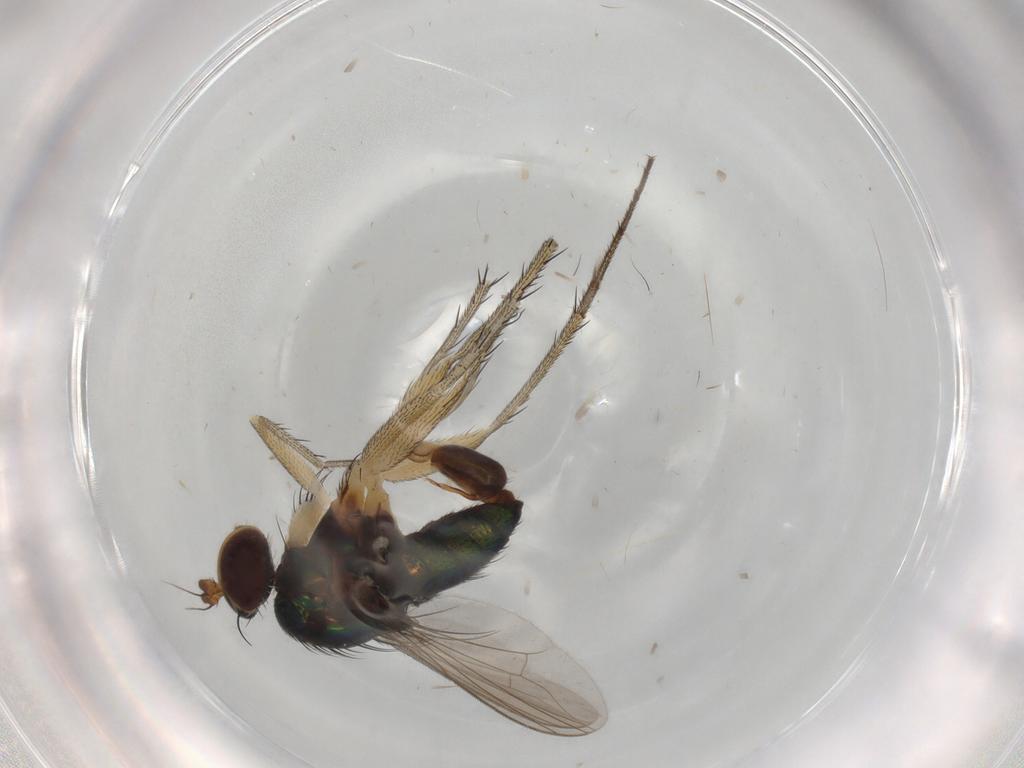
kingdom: Animalia
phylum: Arthropoda
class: Insecta
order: Diptera
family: Dolichopodidae
